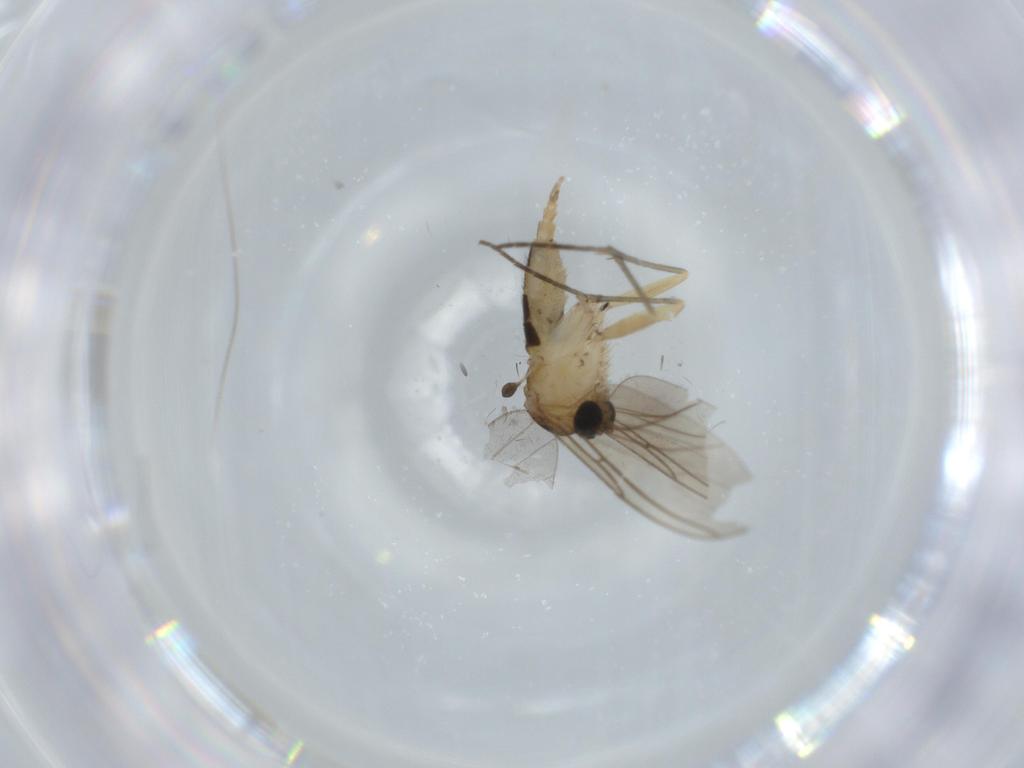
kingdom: Animalia
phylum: Arthropoda
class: Insecta
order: Diptera
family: Sciaridae
